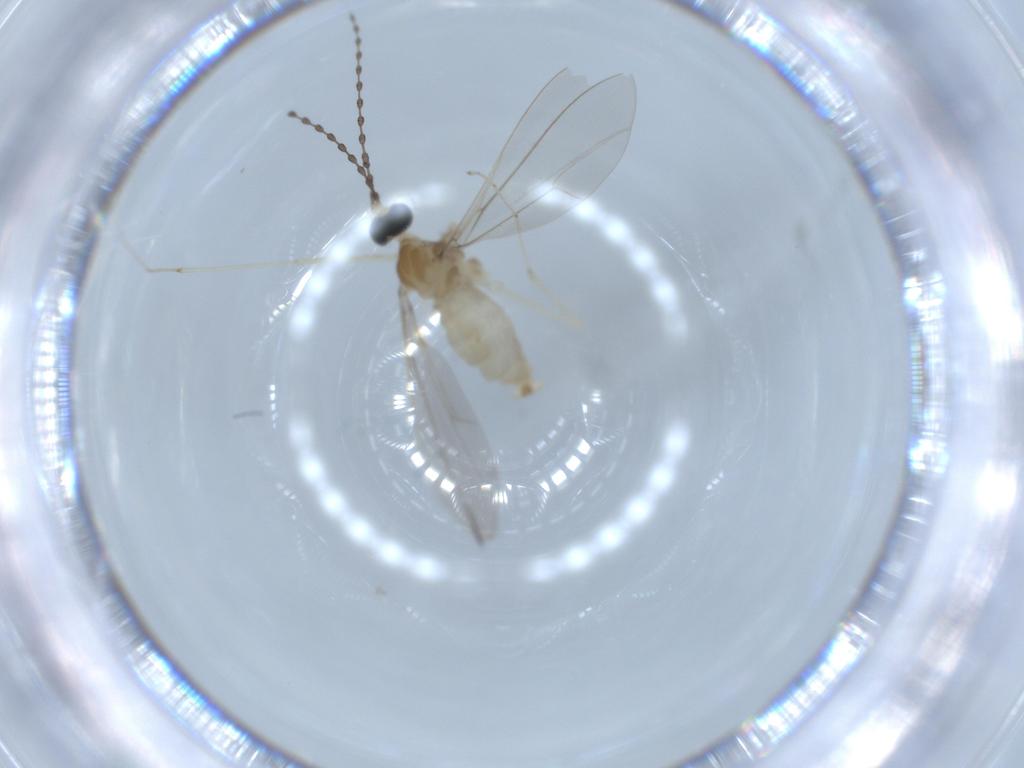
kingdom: Animalia
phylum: Arthropoda
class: Insecta
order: Diptera
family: Cecidomyiidae
